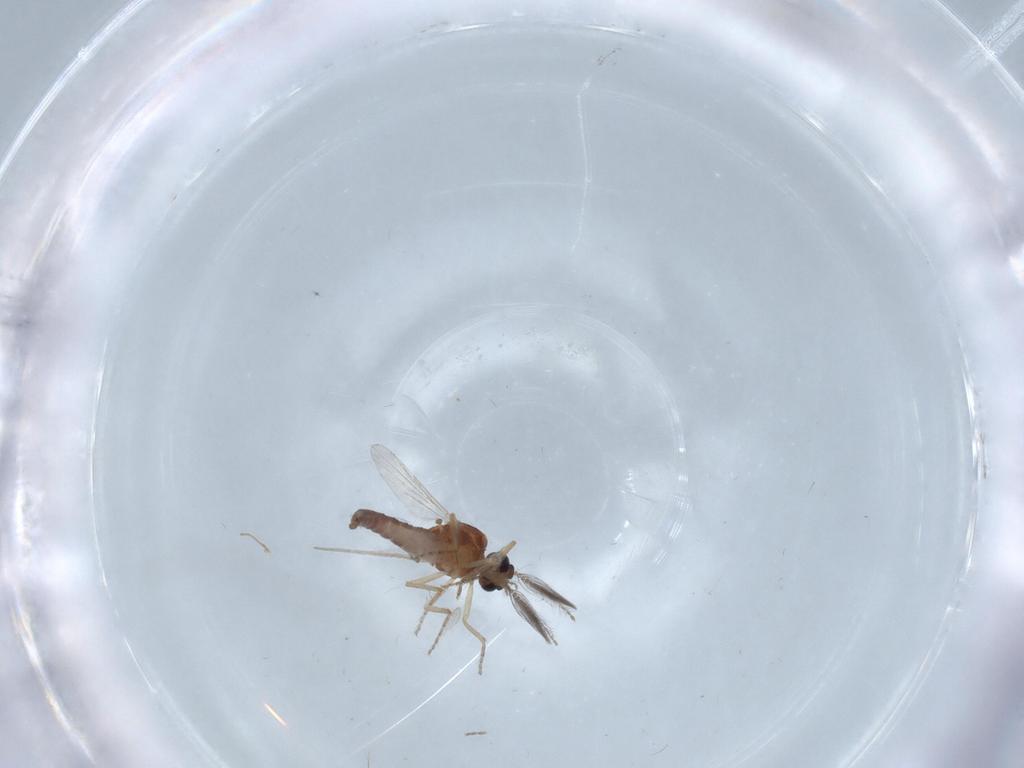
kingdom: Animalia
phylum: Arthropoda
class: Insecta
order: Diptera
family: Ceratopogonidae
